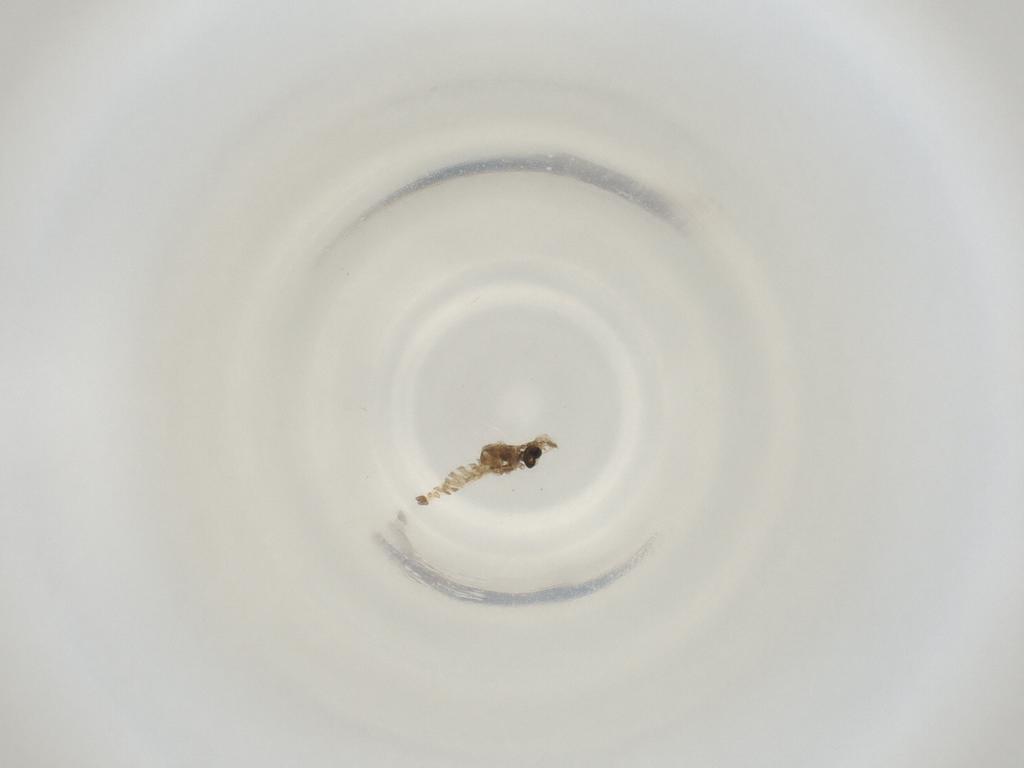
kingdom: Animalia
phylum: Arthropoda
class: Insecta
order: Diptera
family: Cecidomyiidae
